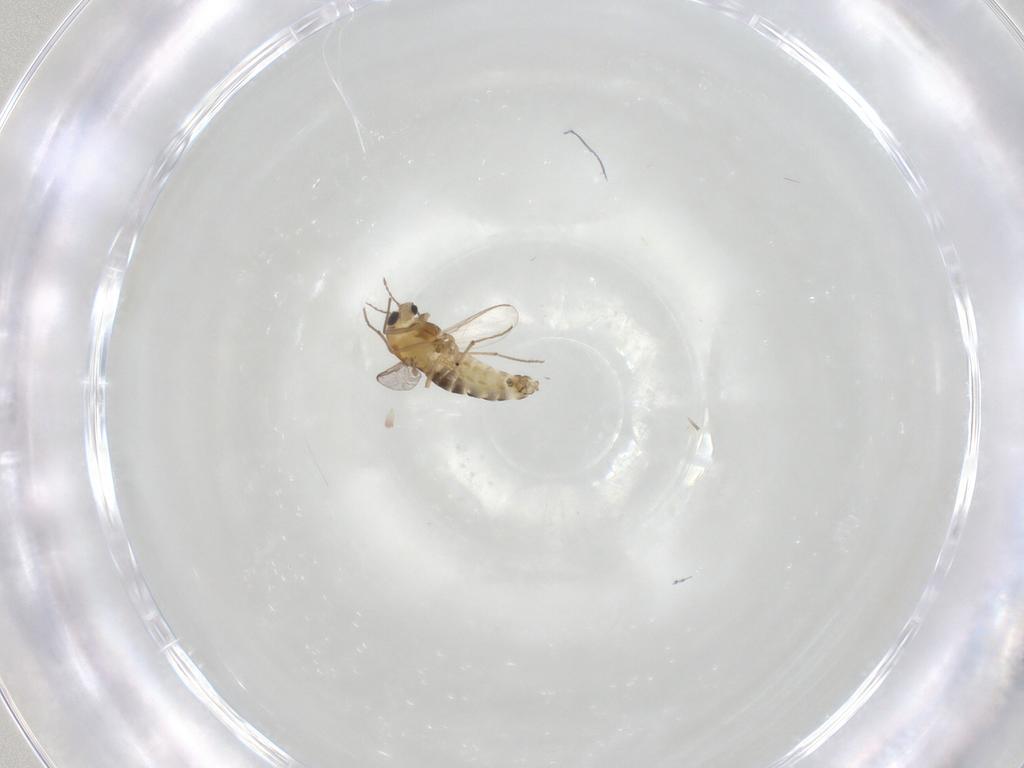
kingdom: Animalia
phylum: Arthropoda
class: Insecta
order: Diptera
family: Chironomidae
